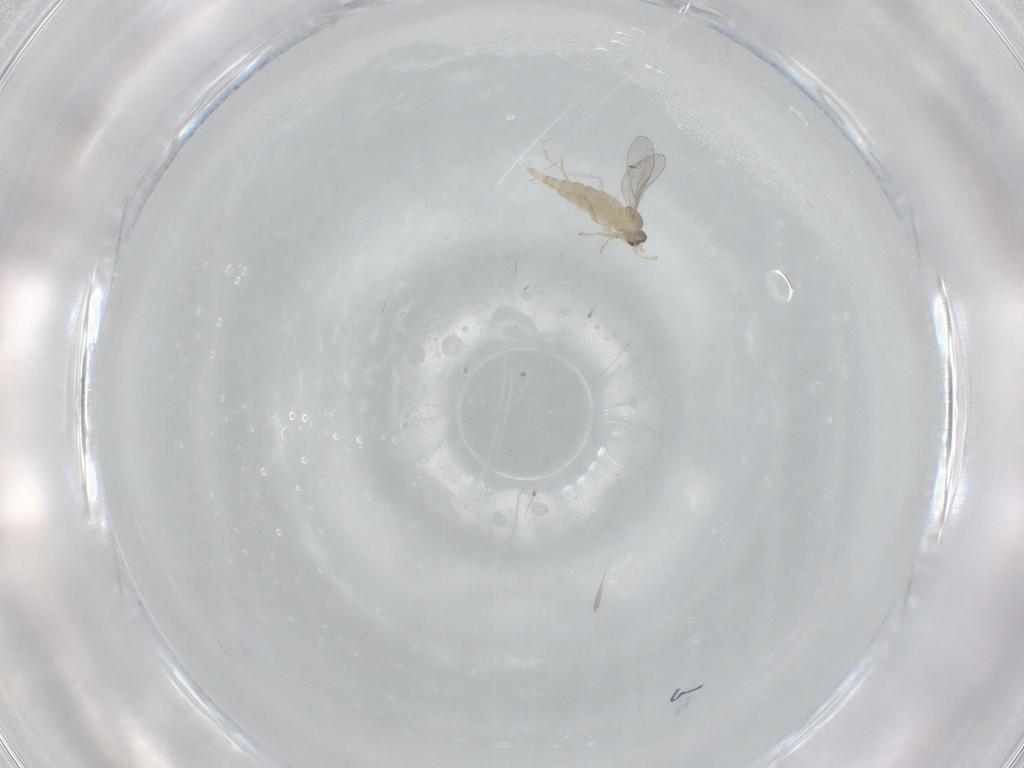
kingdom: Animalia
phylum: Arthropoda
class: Insecta
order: Diptera
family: Cecidomyiidae
